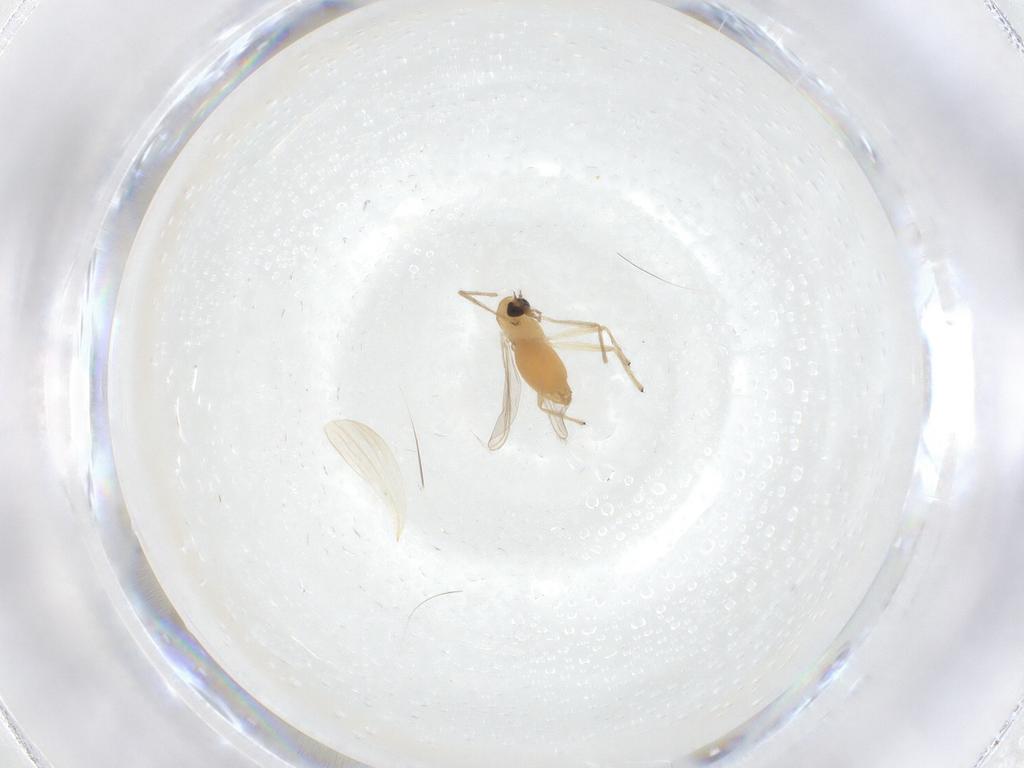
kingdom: Animalia
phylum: Arthropoda
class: Insecta
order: Diptera
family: Chironomidae
